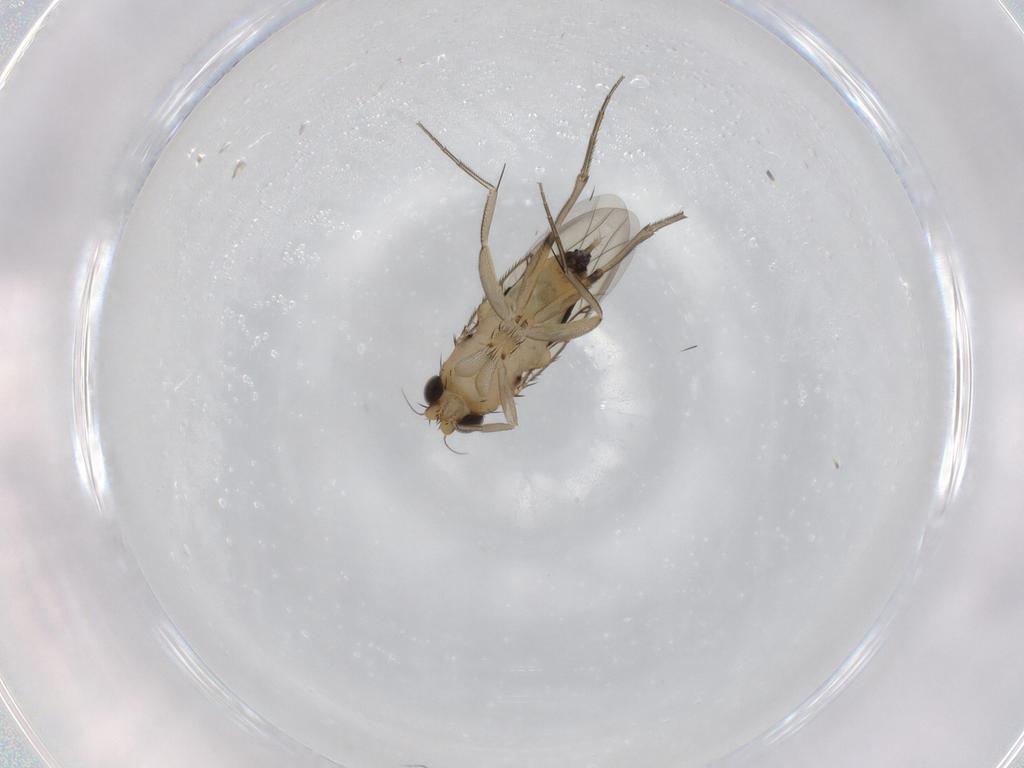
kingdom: Animalia
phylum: Arthropoda
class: Insecta
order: Diptera
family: Phoridae
